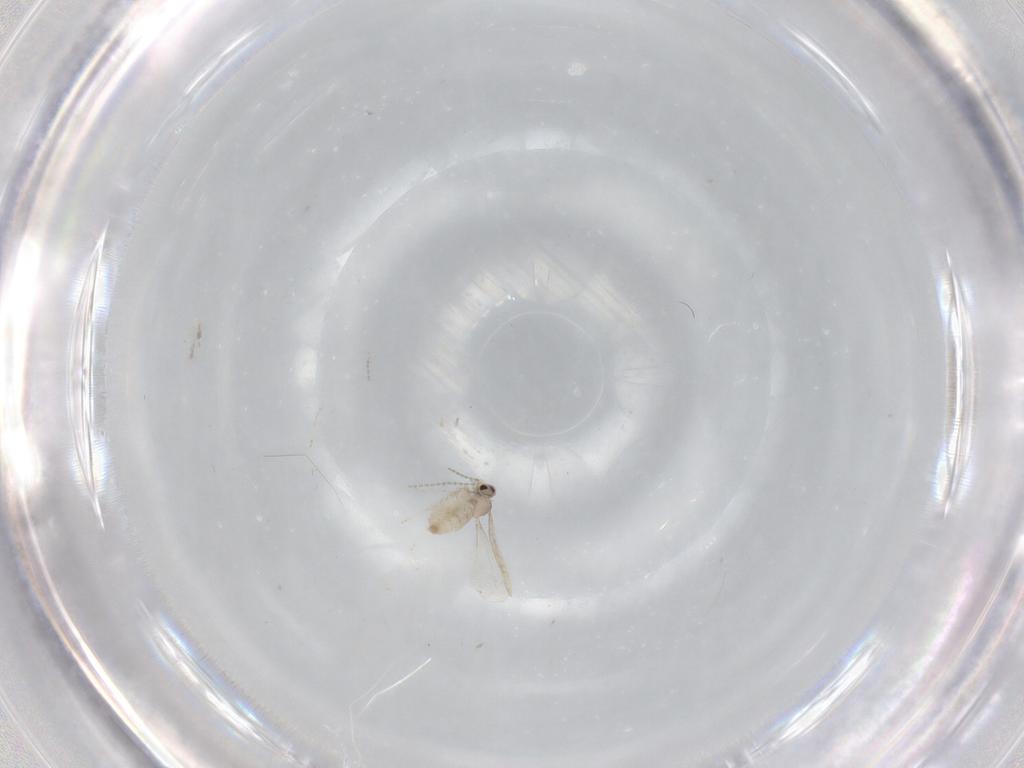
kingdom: Animalia
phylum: Arthropoda
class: Insecta
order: Diptera
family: Cecidomyiidae
